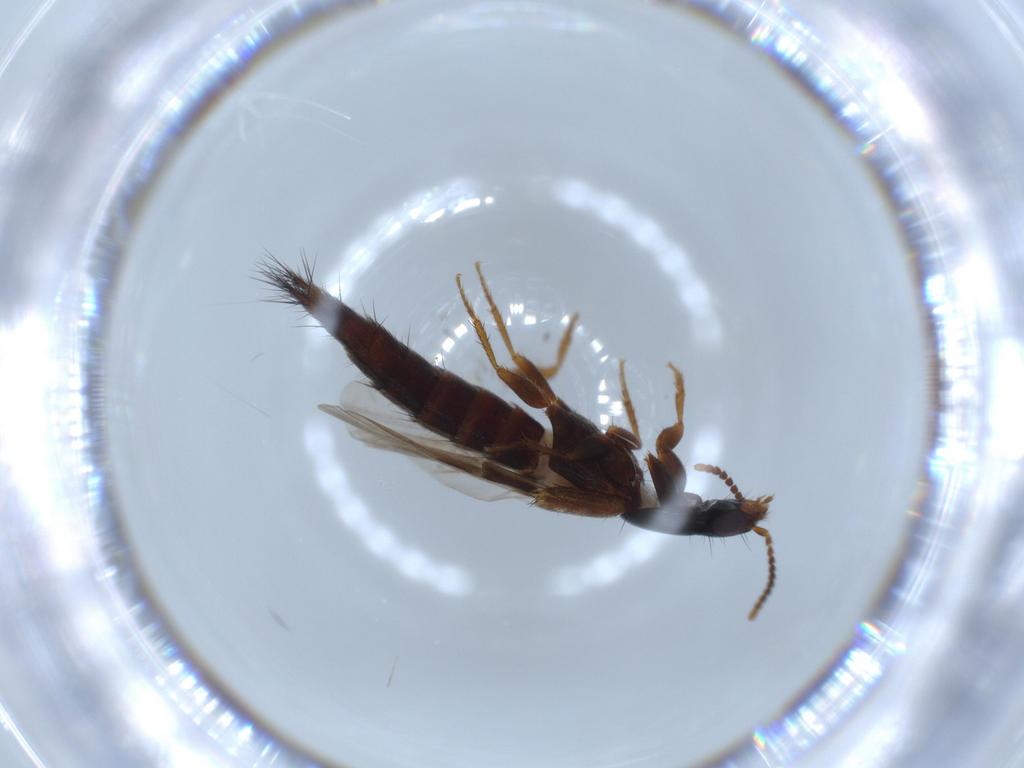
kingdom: Animalia
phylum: Arthropoda
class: Insecta
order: Coleoptera
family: Staphylinidae
